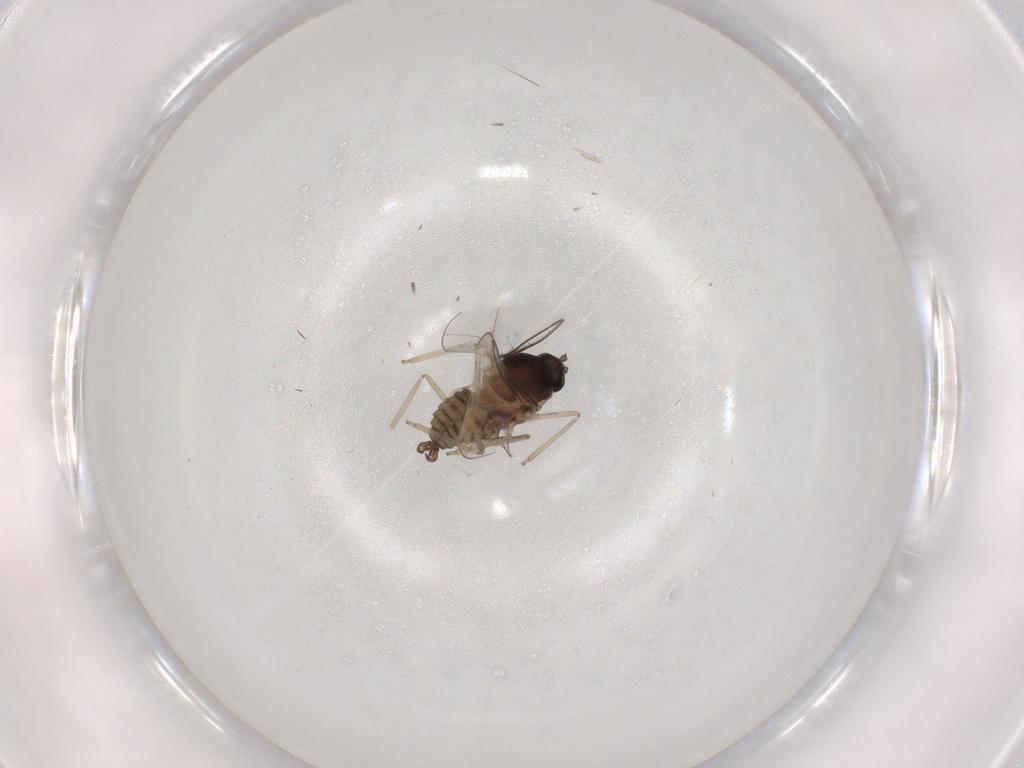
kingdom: Animalia
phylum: Arthropoda
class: Insecta
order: Diptera
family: Cecidomyiidae
